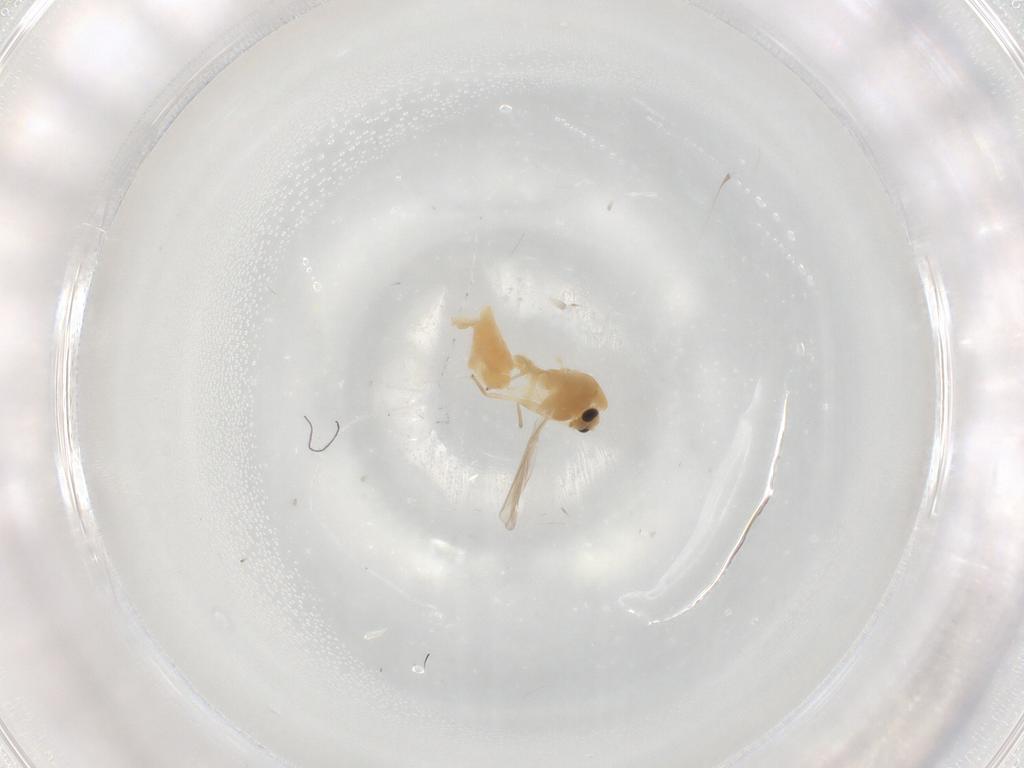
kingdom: Animalia
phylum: Arthropoda
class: Insecta
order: Diptera
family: Chironomidae
